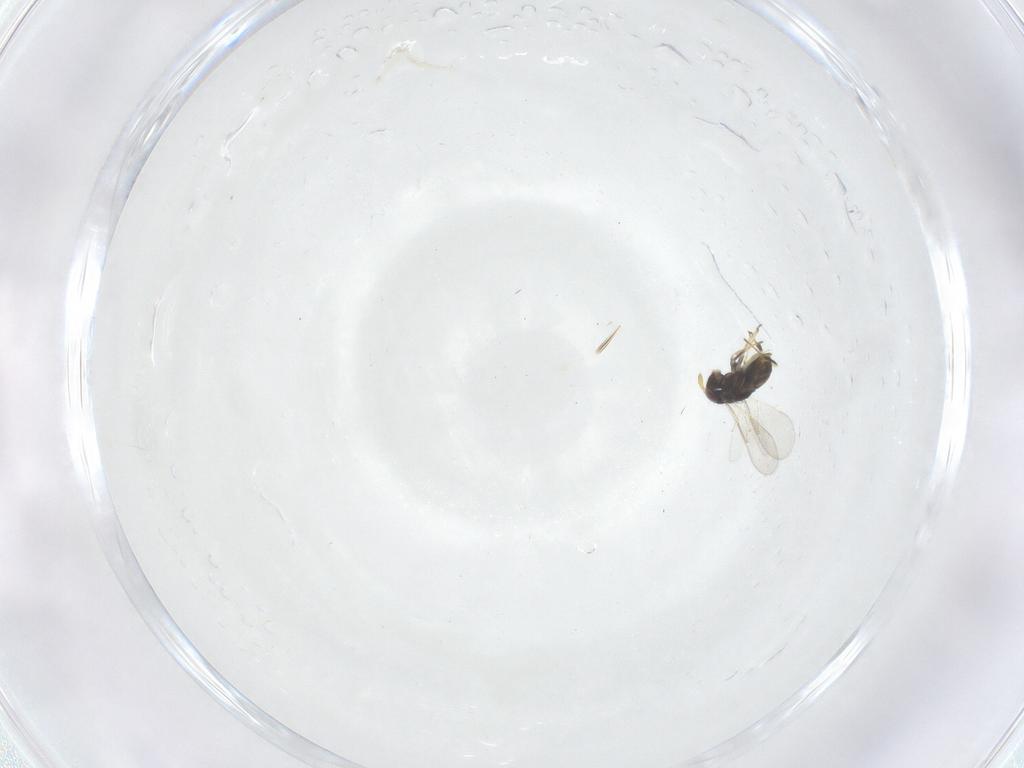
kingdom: Animalia
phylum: Arthropoda
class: Insecta
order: Hymenoptera
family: Aphelinidae
